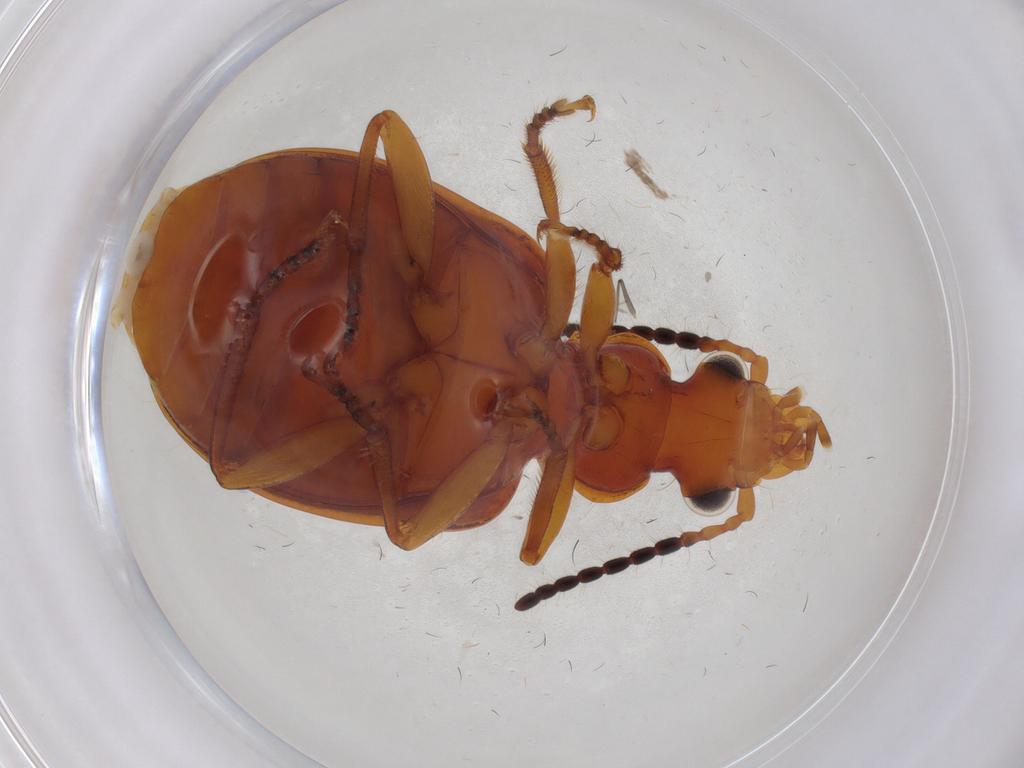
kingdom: Animalia
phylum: Arthropoda
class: Insecta
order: Coleoptera
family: Carabidae
